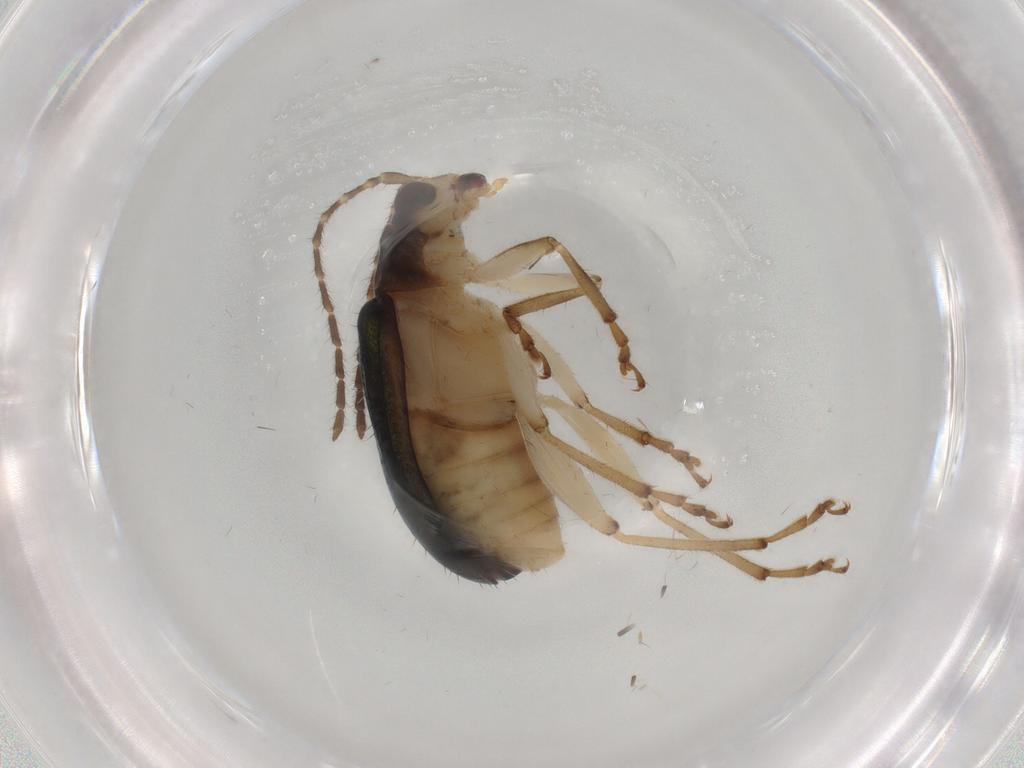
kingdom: Animalia
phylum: Arthropoda
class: Insecta
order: Coleoptera
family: Chrysomelidae
